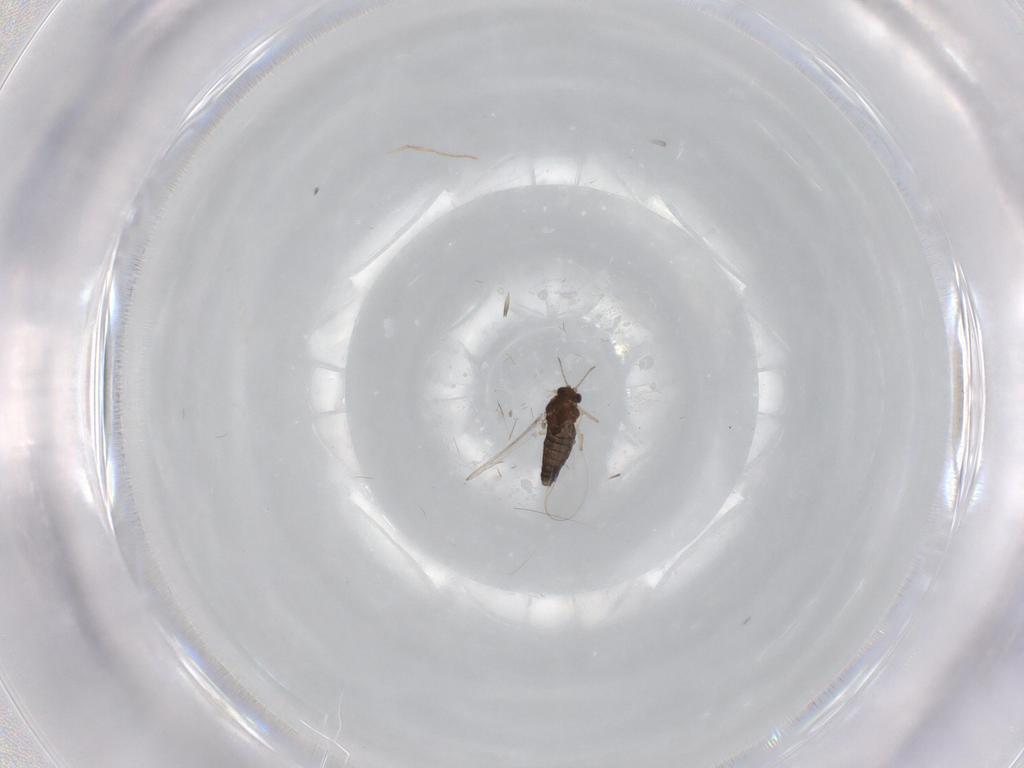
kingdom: Animalia
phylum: Arthropoda
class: Insecta
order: Diptera
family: Chironomidae
